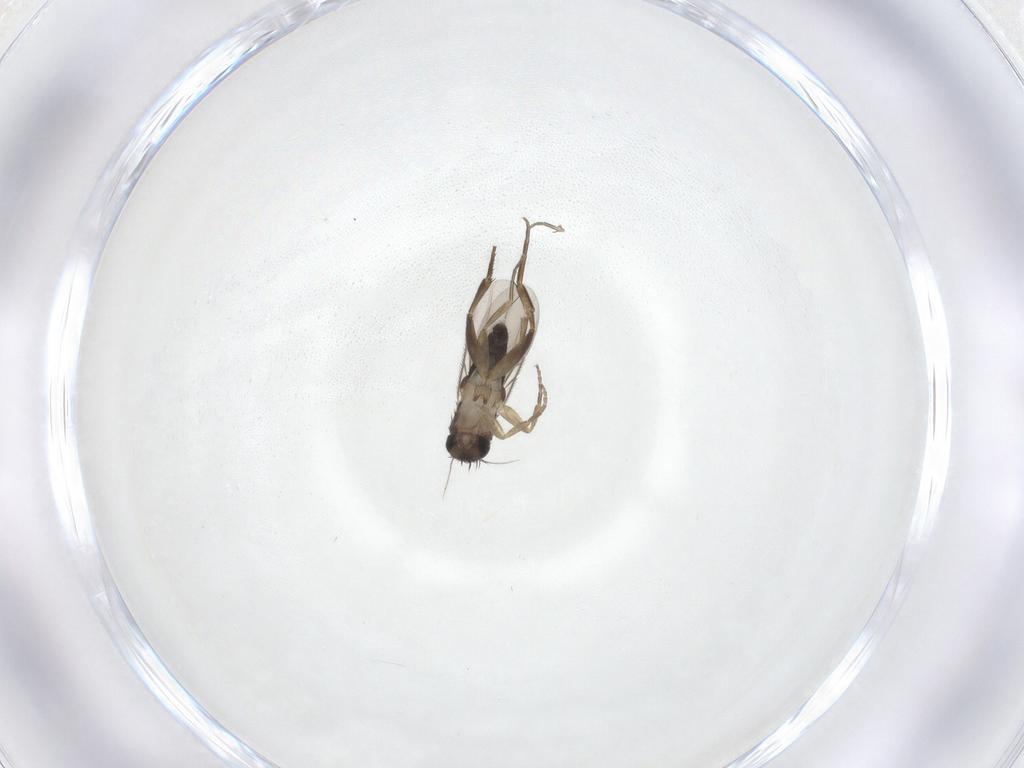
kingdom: Animalia
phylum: Arthropoda
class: Insecta
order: Diptera
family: Phoridae
